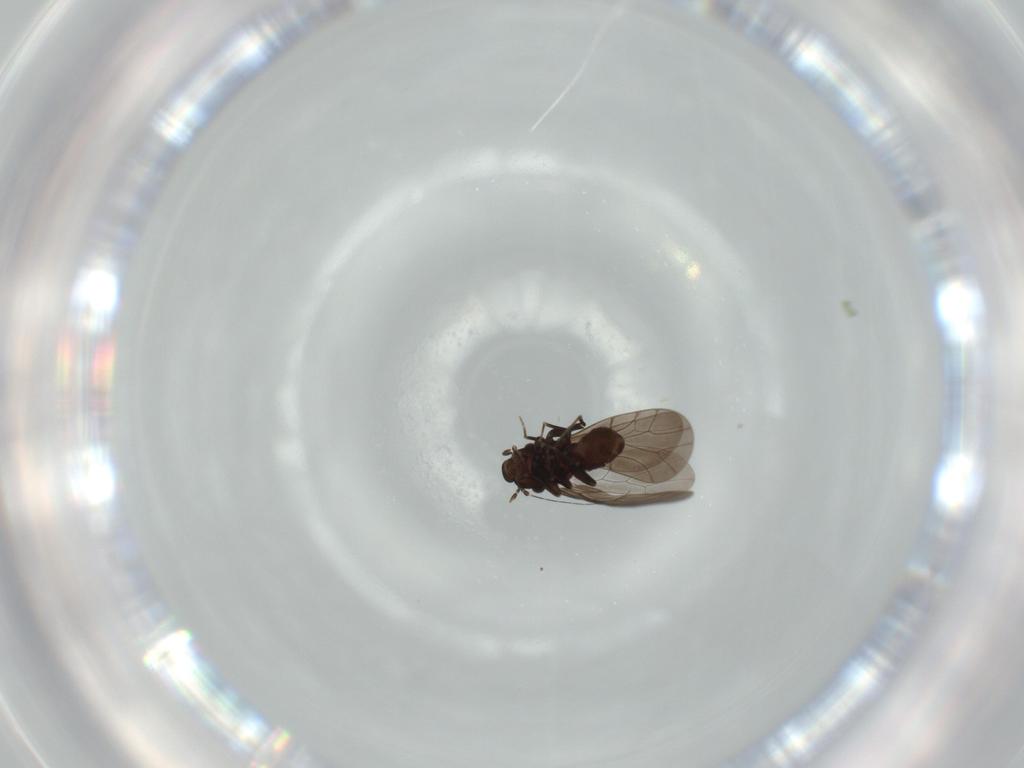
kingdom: Animalia
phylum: Arthropoda
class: Insecta
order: Psocodea
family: Lepidopsocidae
